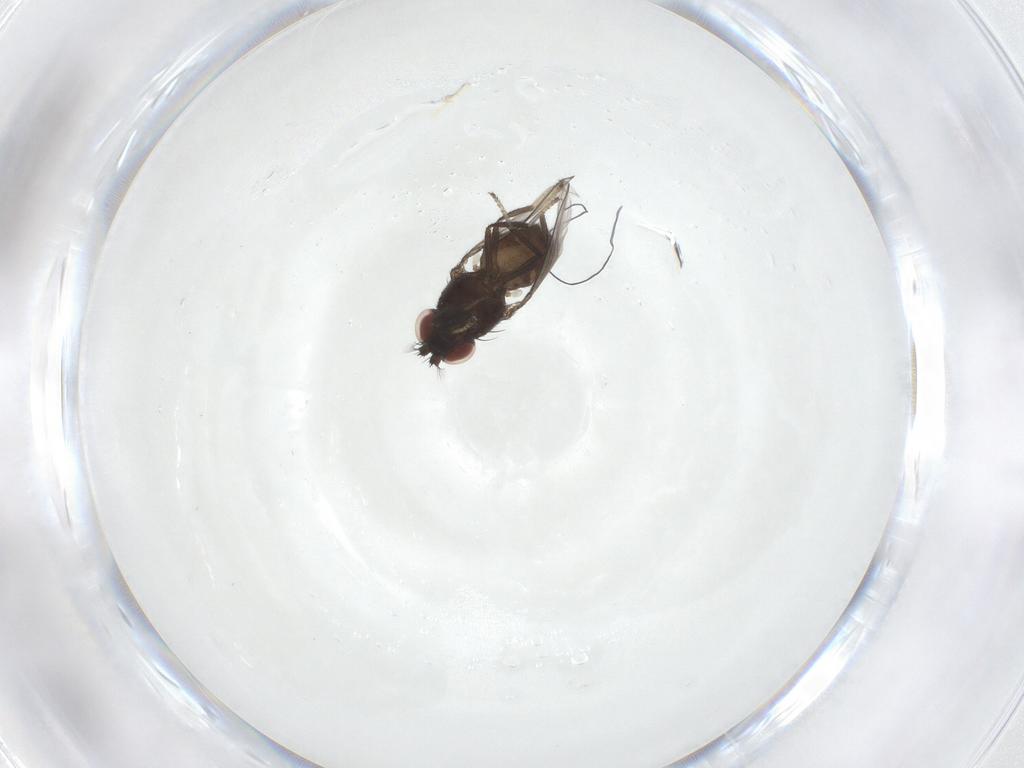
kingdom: Animalia
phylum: Arthropoda
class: Insecta
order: Diptera
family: Chironomidae
